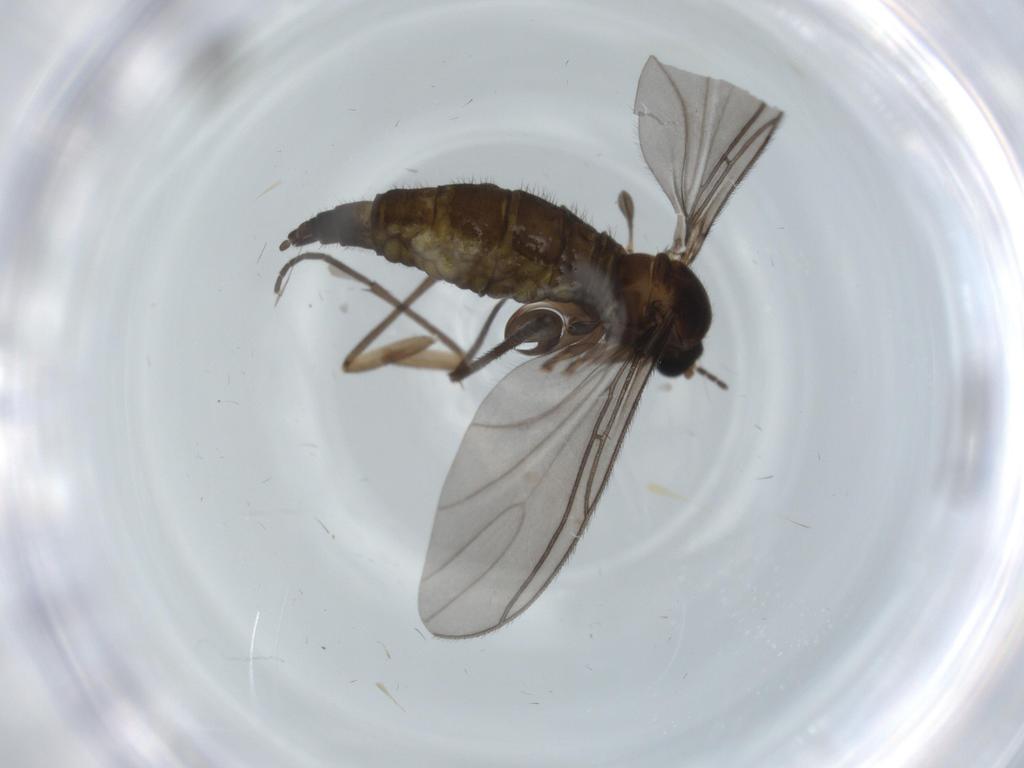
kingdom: Animalia
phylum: Arthropoda
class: Insecta
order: Diptera
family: Sciaridae
